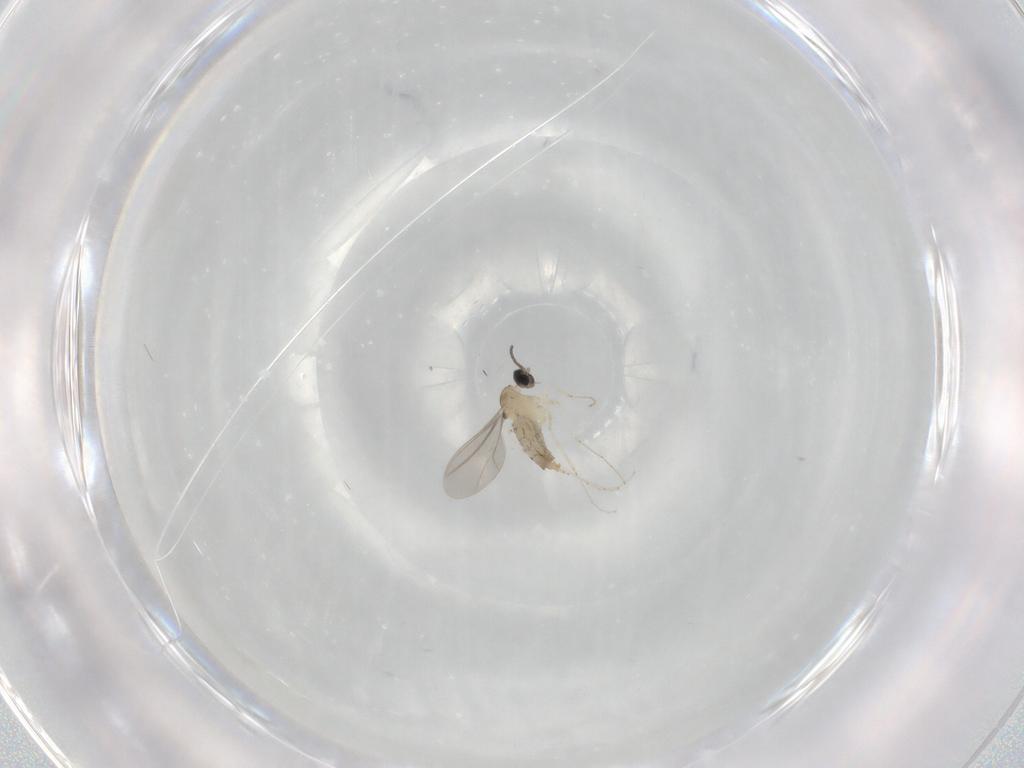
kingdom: Animalia
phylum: Arthropoda
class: Insecta
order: Diptera
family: Cecidomyiidae
